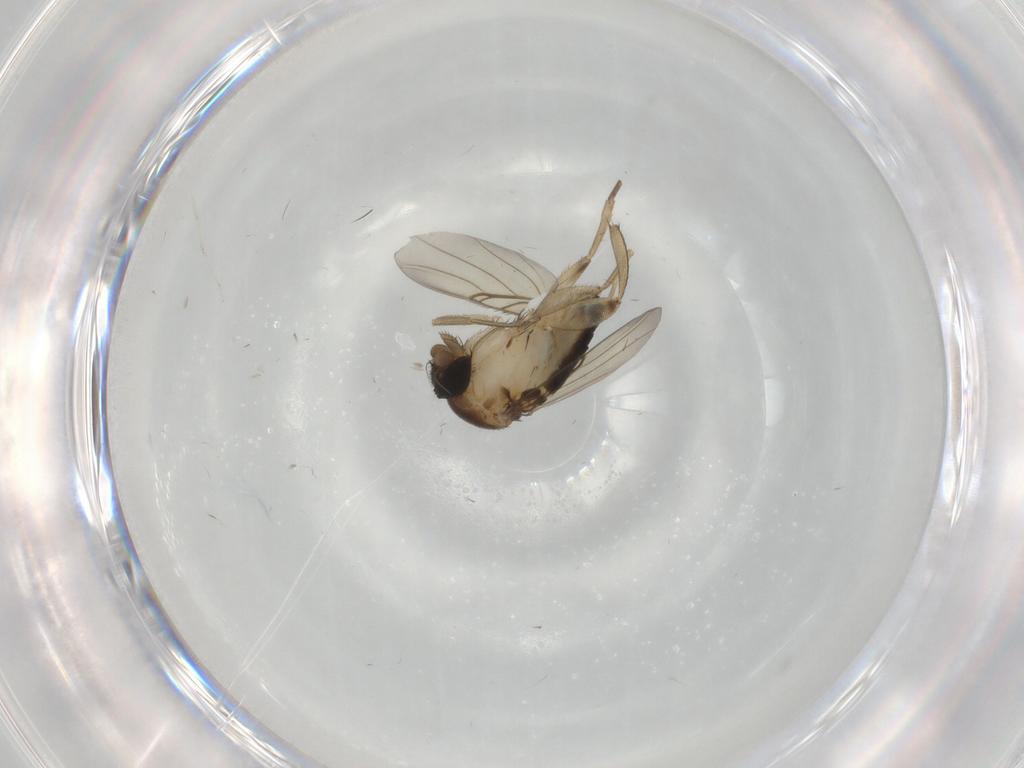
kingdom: Animalia
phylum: Arthropoda
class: Insecta
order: Diptera
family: Phoridae
